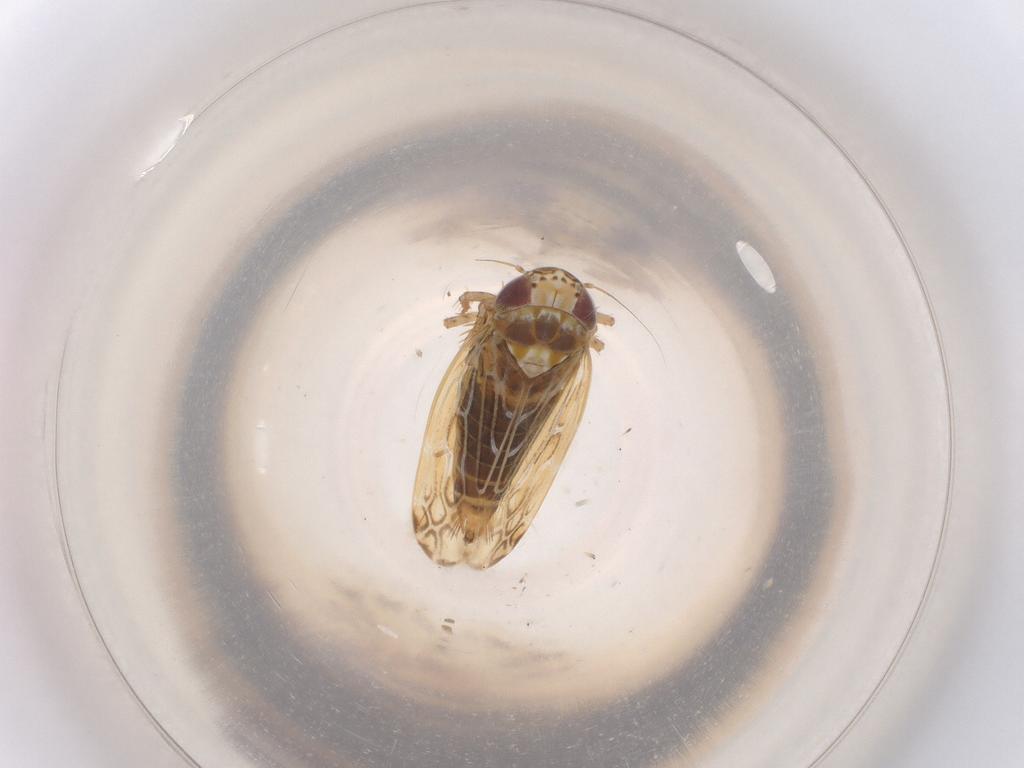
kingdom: Animalia
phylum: Arthropoda
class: Insecta
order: Hemiptera
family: Cicadellidae
